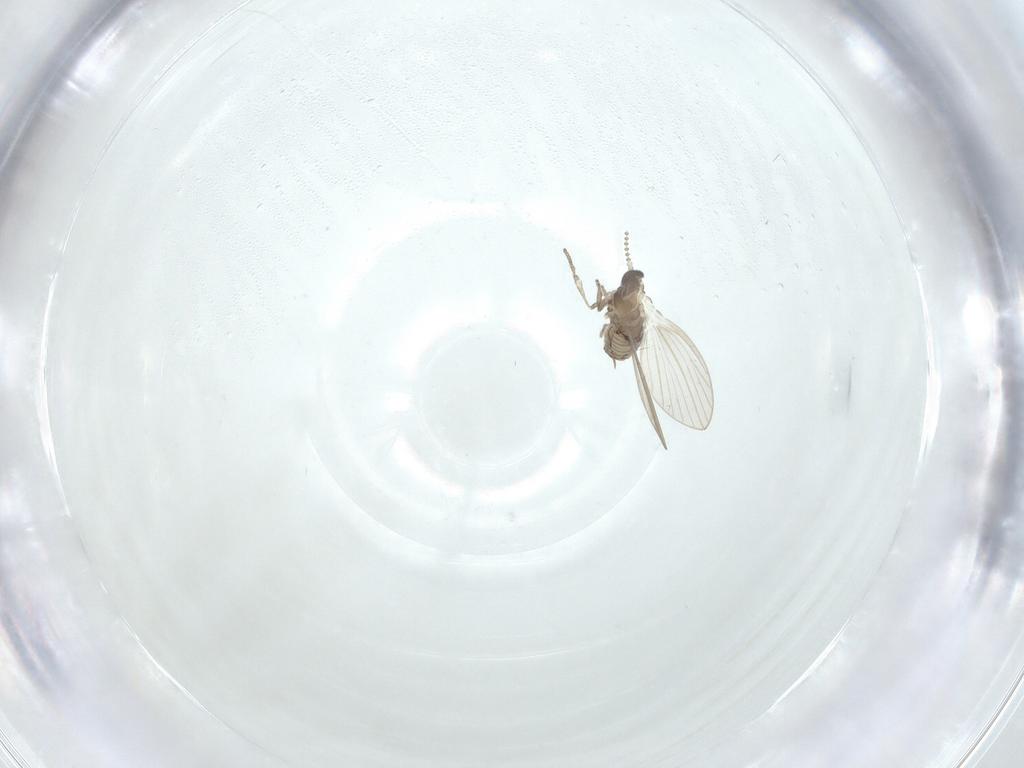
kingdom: Animalia
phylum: Arthropoda
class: Insecta
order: Diptera
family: Psychodidae
